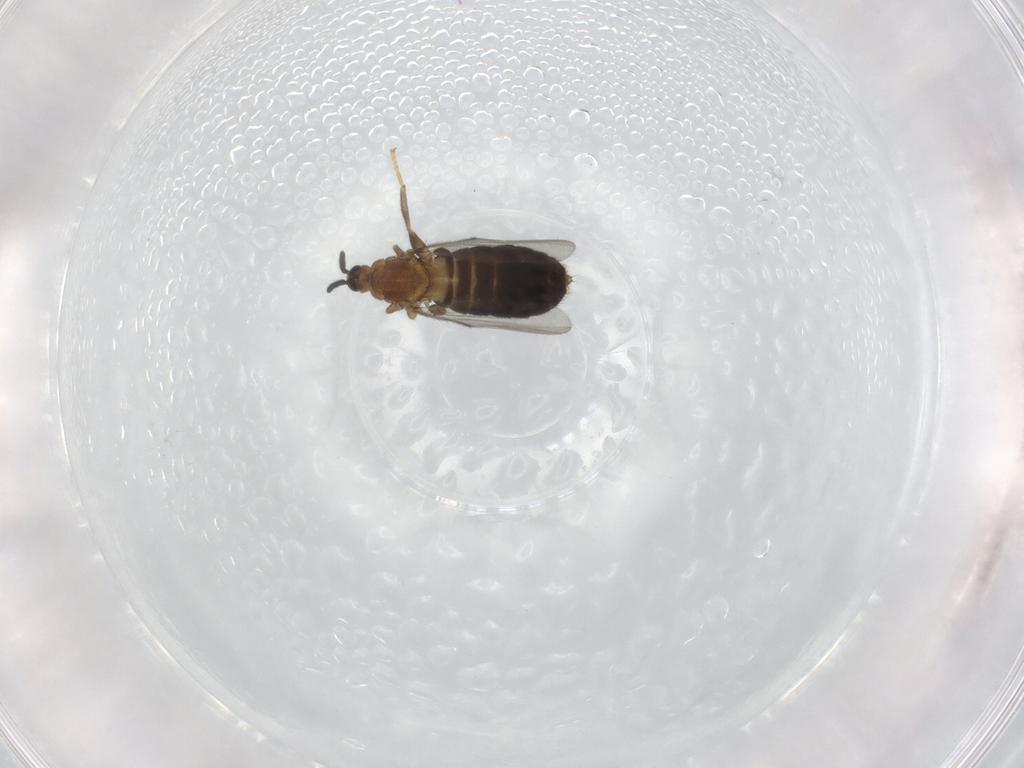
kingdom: Animalia
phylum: Arthropoda
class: Insecta
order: Diptera
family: Scatopsidae
